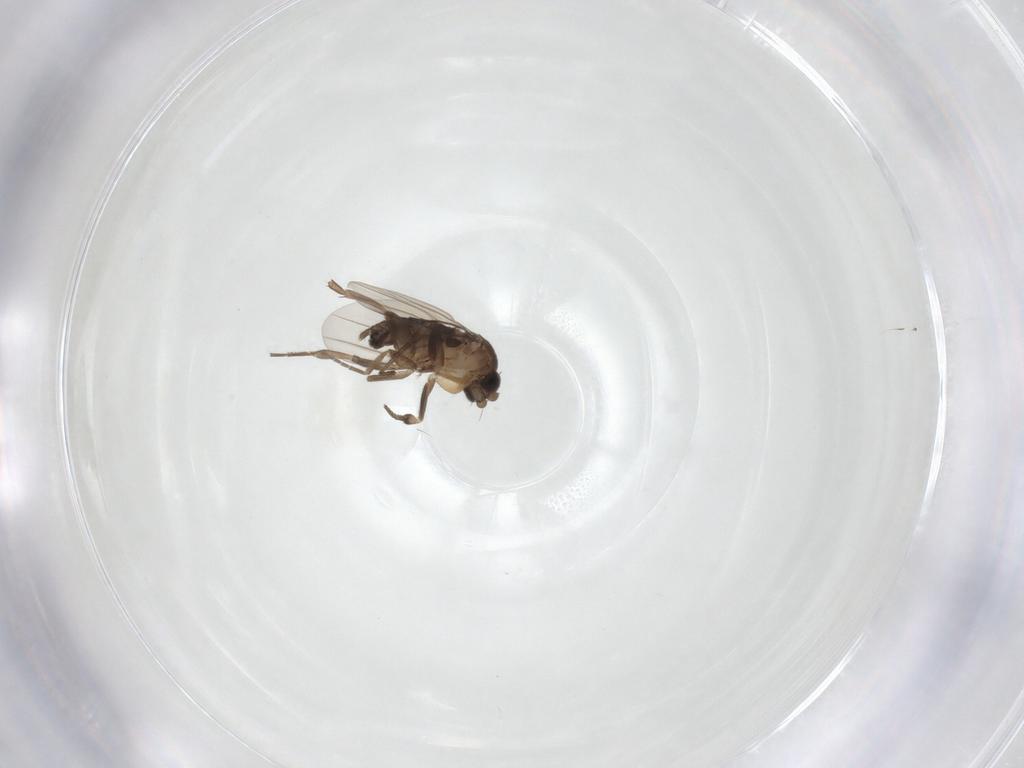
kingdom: Animalia
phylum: Arthropoda
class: Insecta
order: Diptera
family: Phoridae
